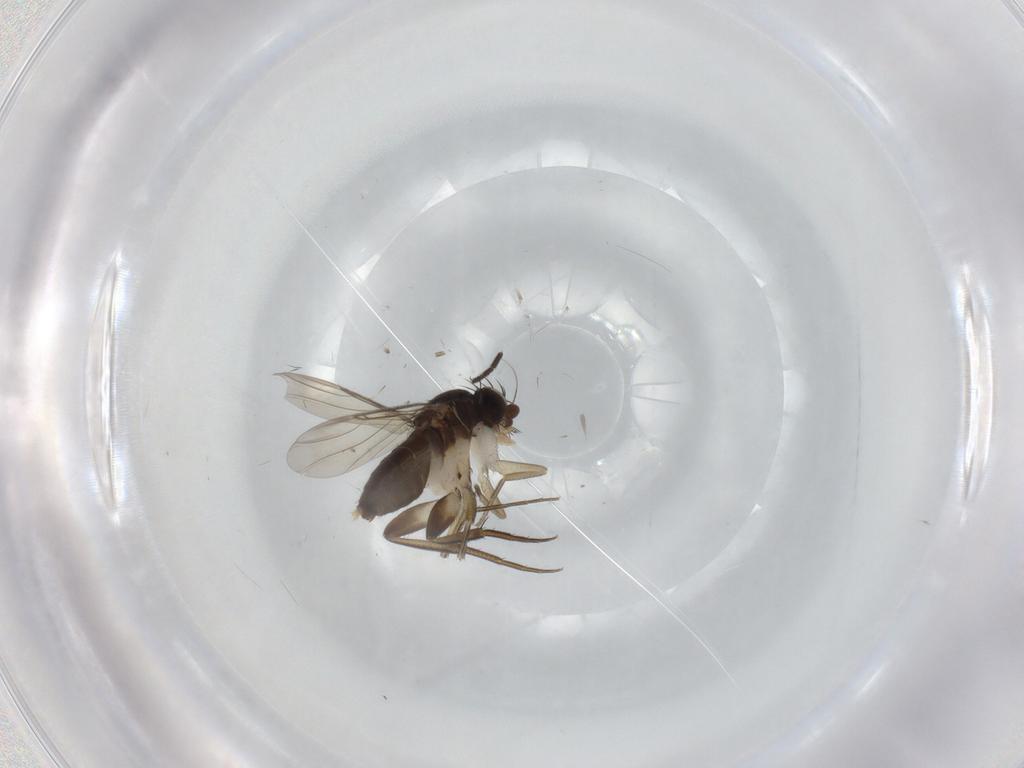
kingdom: Animalia
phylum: Arthropoda
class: Insecta
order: Diptera
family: Phoridae
